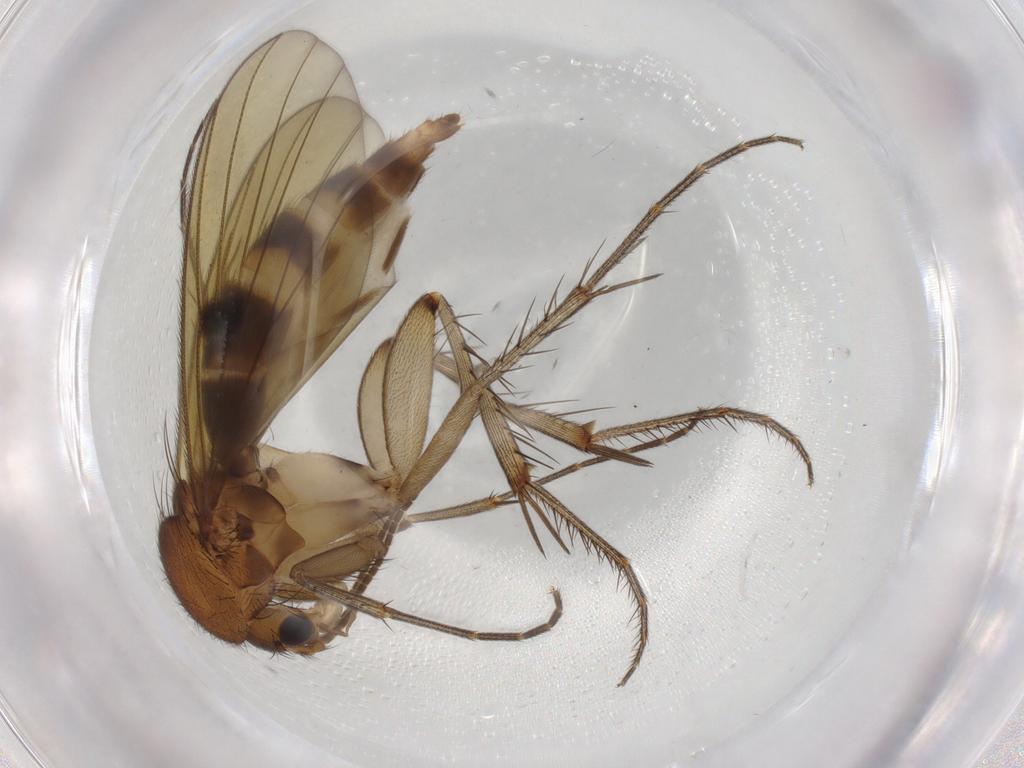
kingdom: Animalia
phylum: Arthropoda
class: Insecta
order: Diptera
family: Mycetophilidae
